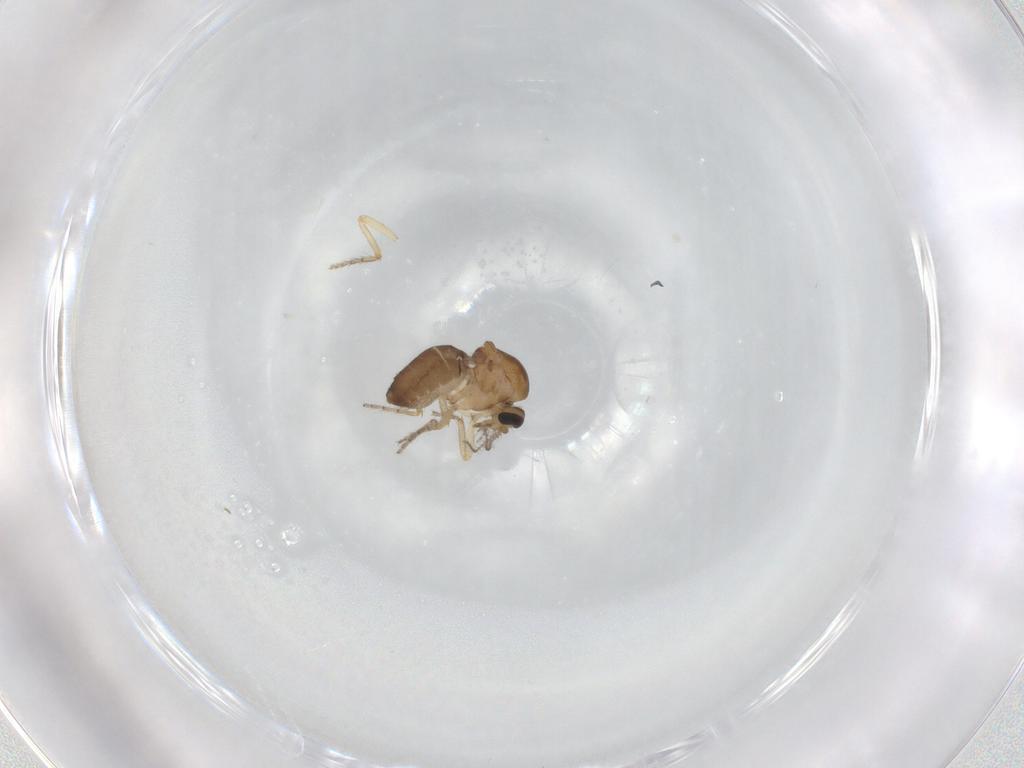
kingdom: Animalia
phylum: Arthropoda
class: Insecta
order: Diptera
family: Ceratopogonidae
